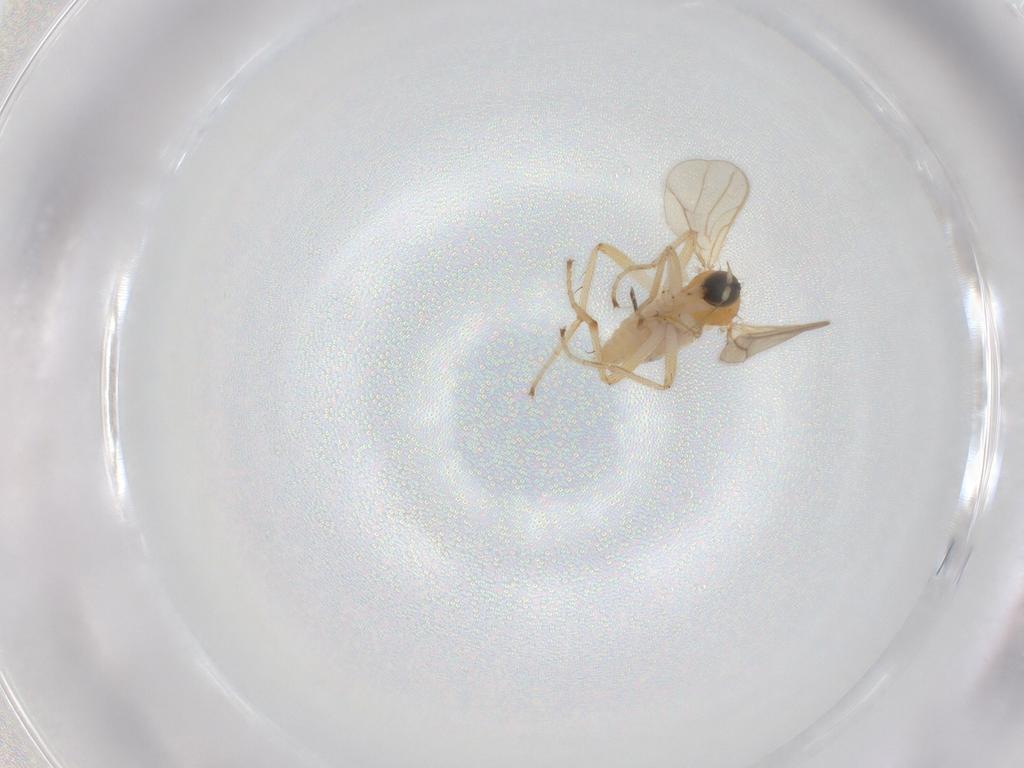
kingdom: Animalia
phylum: Arthropoda
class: Insecta
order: Diptera
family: Hybotidae
